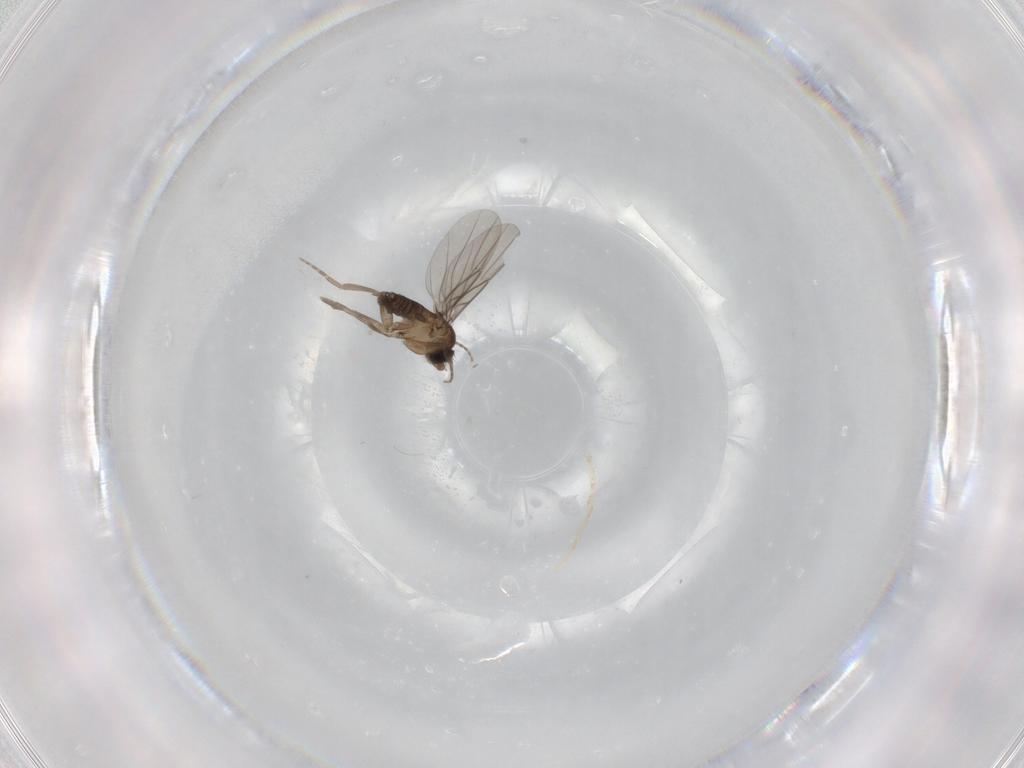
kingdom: Animalia
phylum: Arthropoda
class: Insecta
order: Diptera
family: Phoridae
